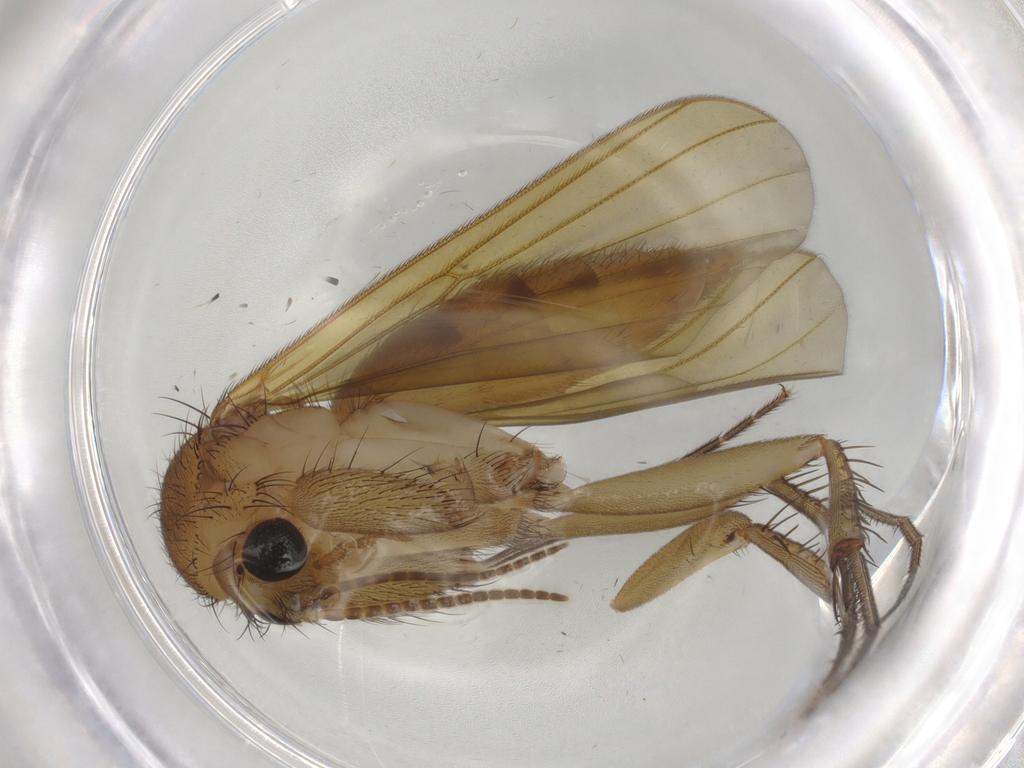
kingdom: Animalia
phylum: Arthropoda
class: Insecta
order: Diptera
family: Mycetophilidae
